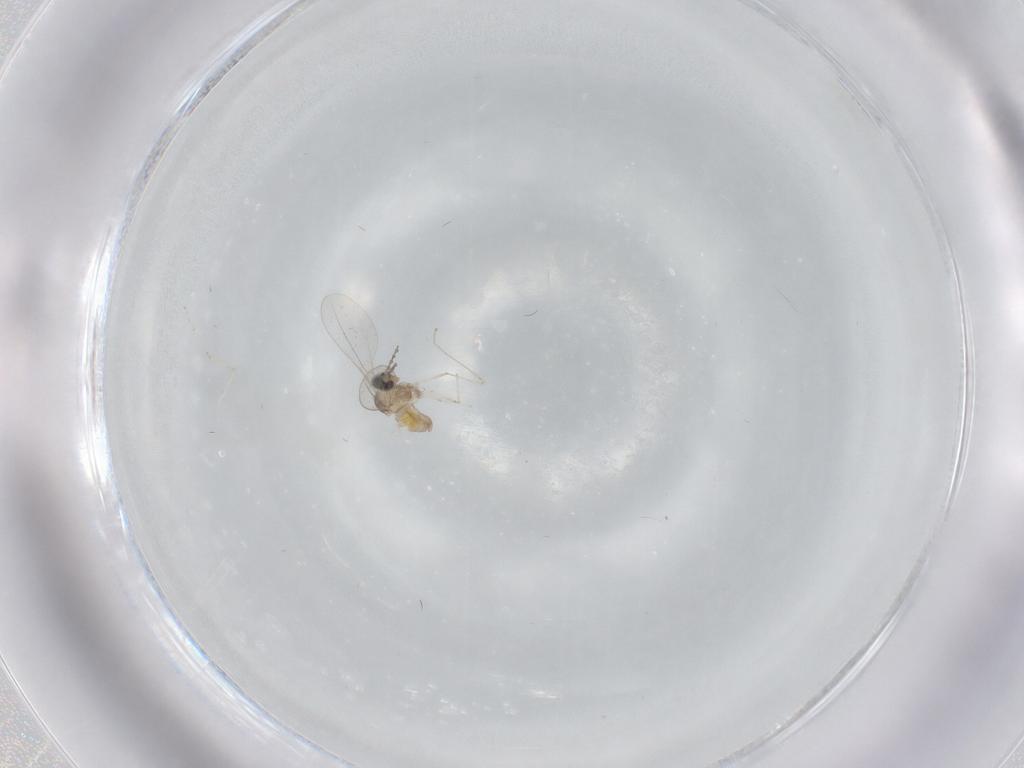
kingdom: Animalia
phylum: Arthropoda
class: Insecta
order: Diptera
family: Cecidomyiidae
